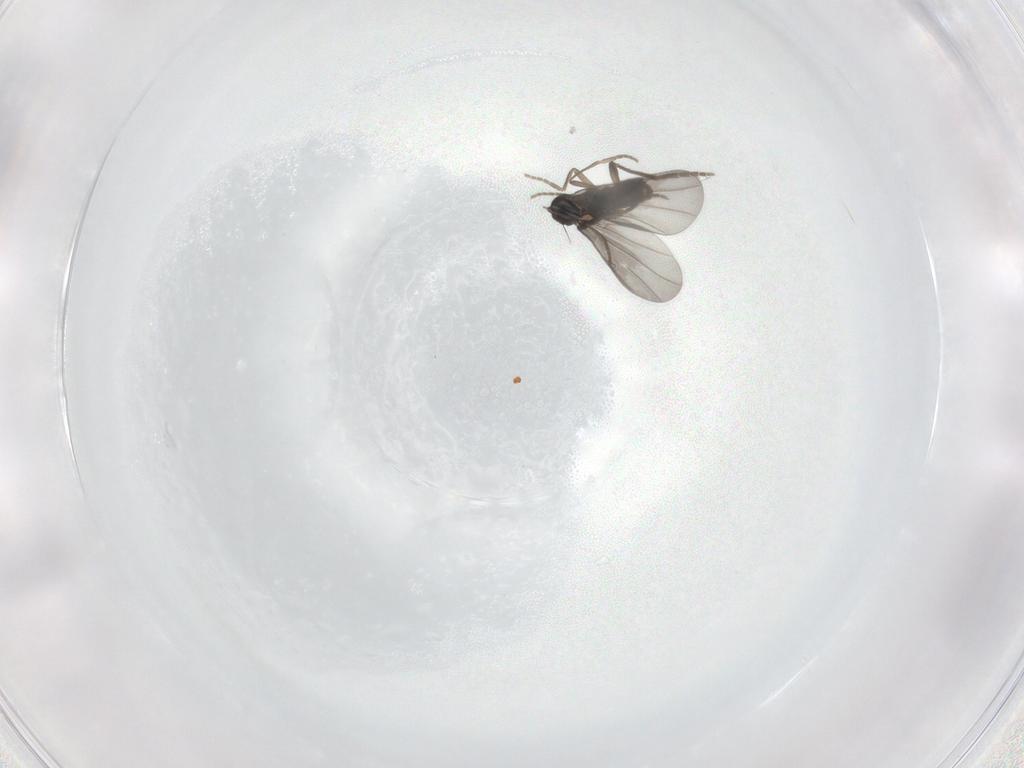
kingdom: Animalia
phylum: Arthropoda
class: Insecta
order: Diptera
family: Phoridae
